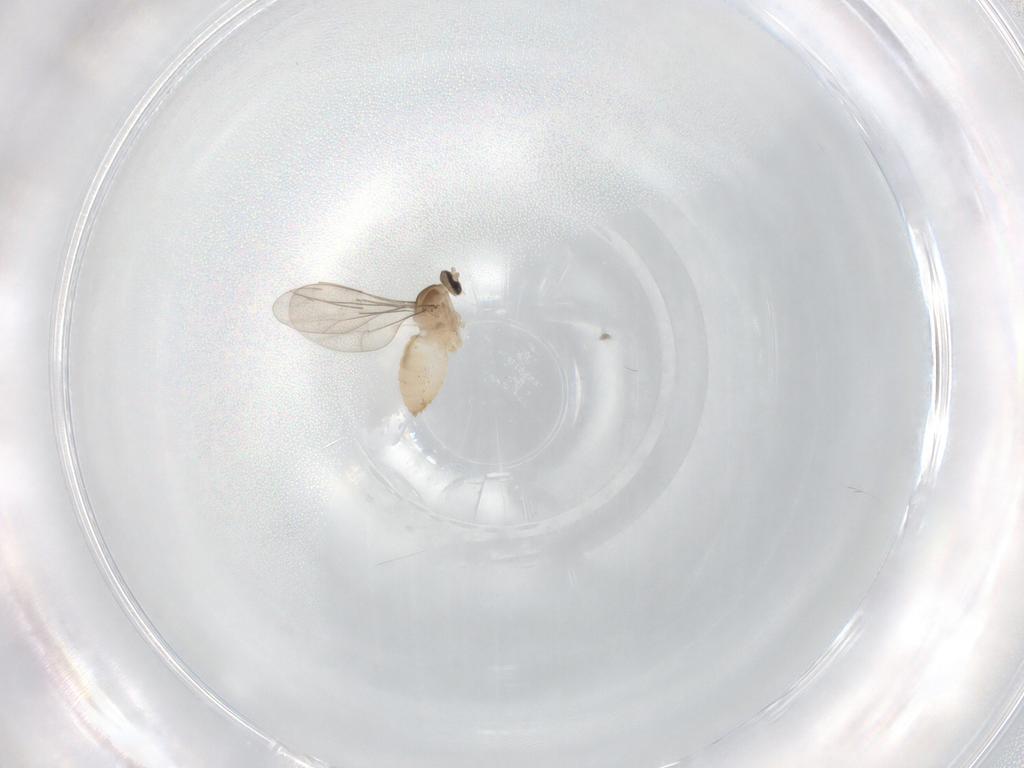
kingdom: Animalia
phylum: Arthropoda
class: Insecta
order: Diptera
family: Cecidomyiidae
